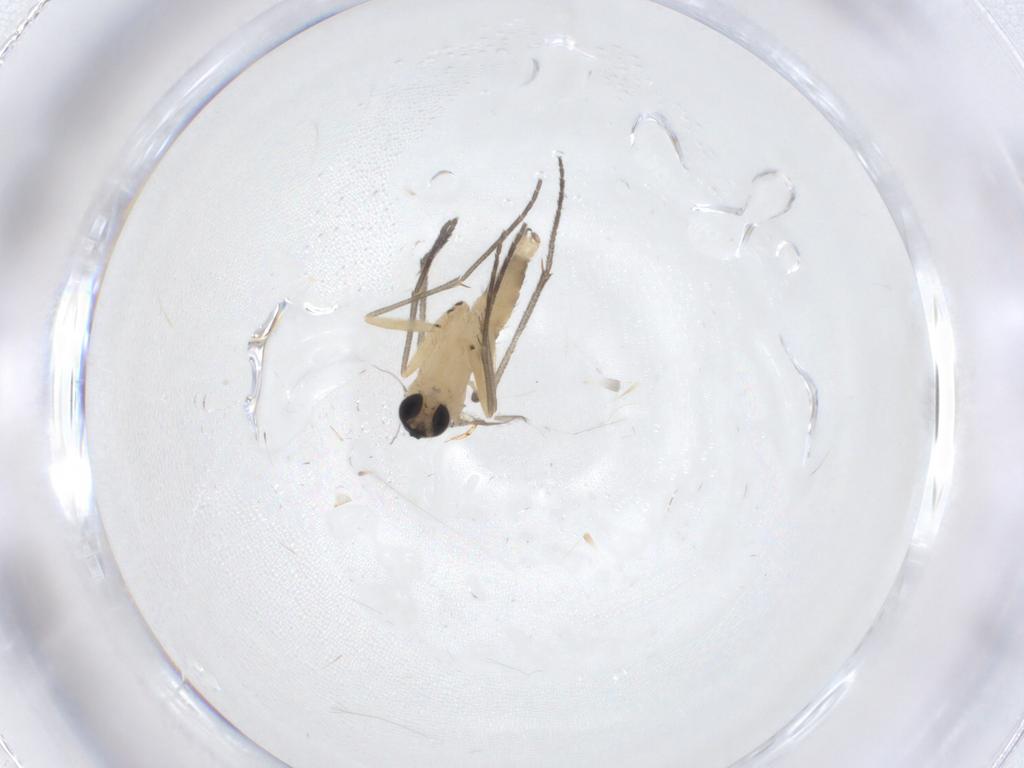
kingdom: Animalia
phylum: Arthropoda
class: Insecta
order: Diptera
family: Sciaridae
